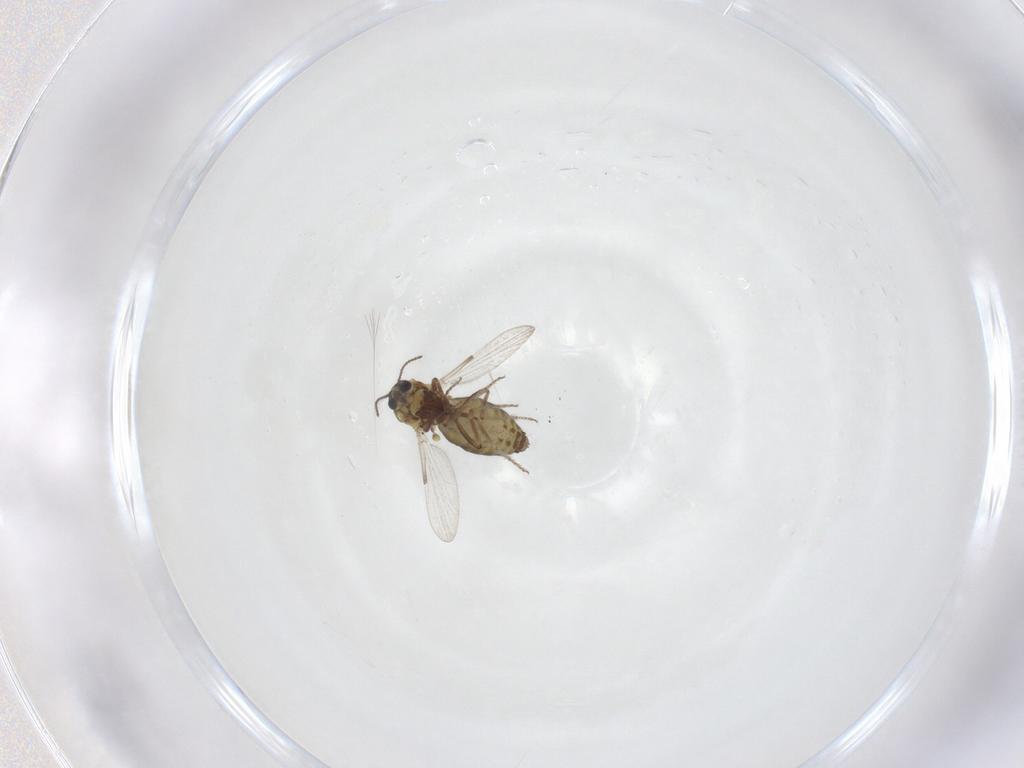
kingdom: Animalia
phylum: Arthropoda
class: Insecta
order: Diptera
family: Ceratopogonidae
